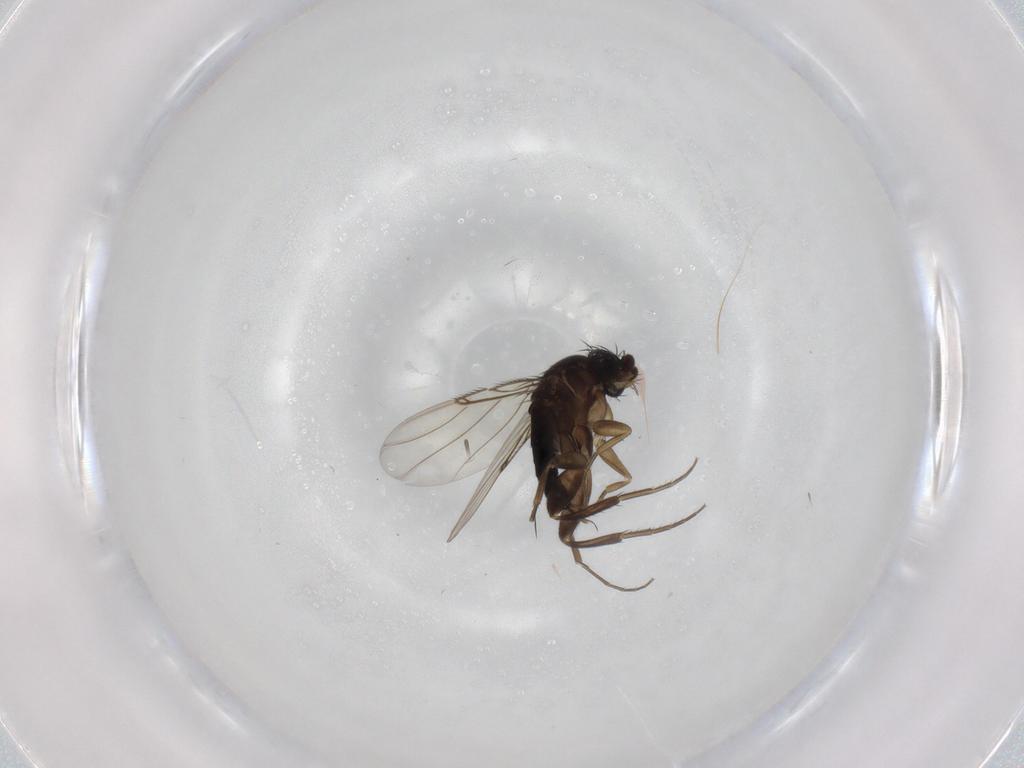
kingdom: Animalia
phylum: Arthropoda
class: Insecta
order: Diptera
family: Phoridae
